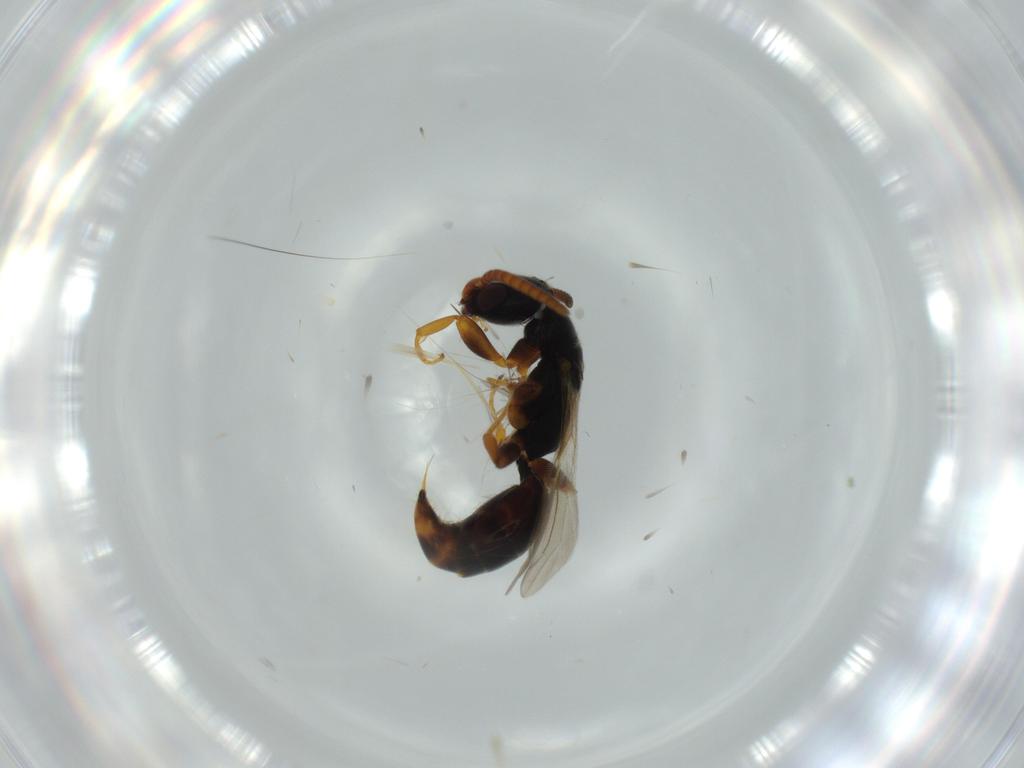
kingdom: Animalia
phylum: Arthropoda
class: Insecta
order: Hymenoptera
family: Bethylidae
